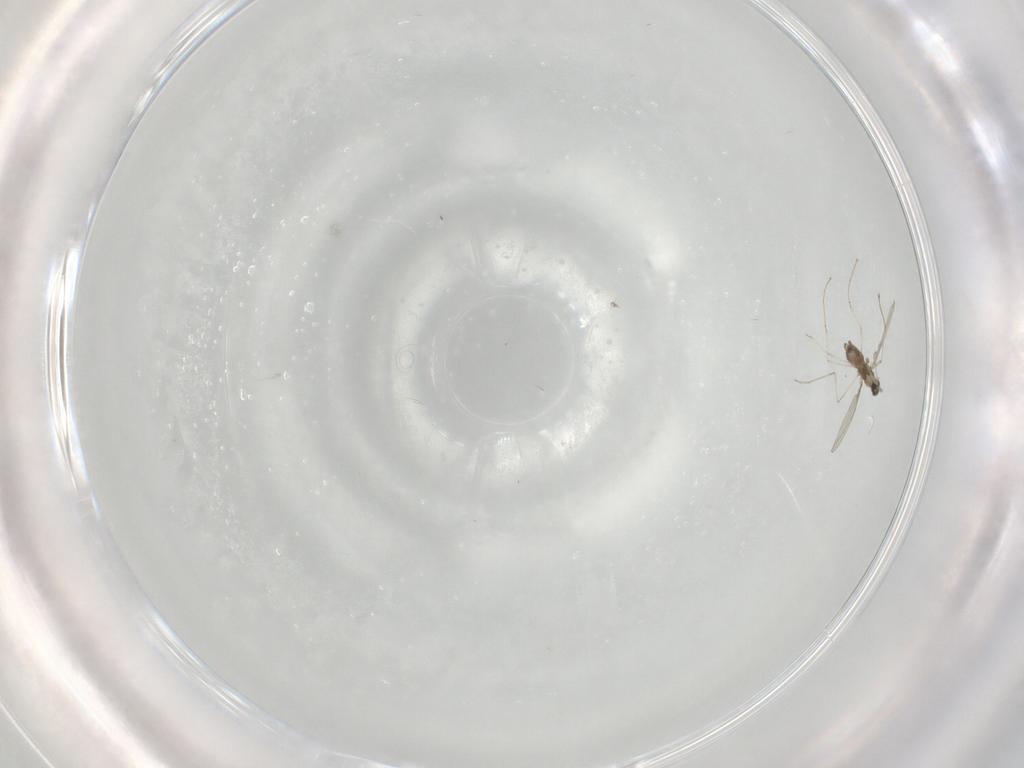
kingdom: Animalia
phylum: Arthropoda
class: Insecta
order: Diptera
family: Cecidomyiidae
